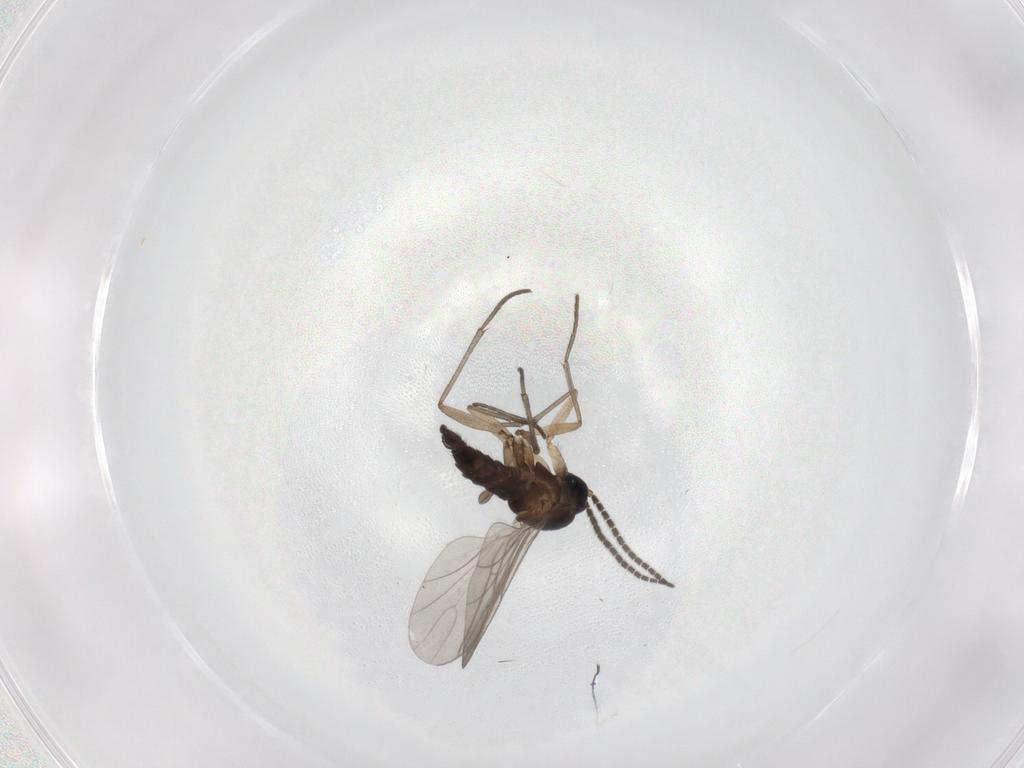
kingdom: Animalia
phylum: Arthropoda
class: Insecta
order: Diptera
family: Sciaridae
